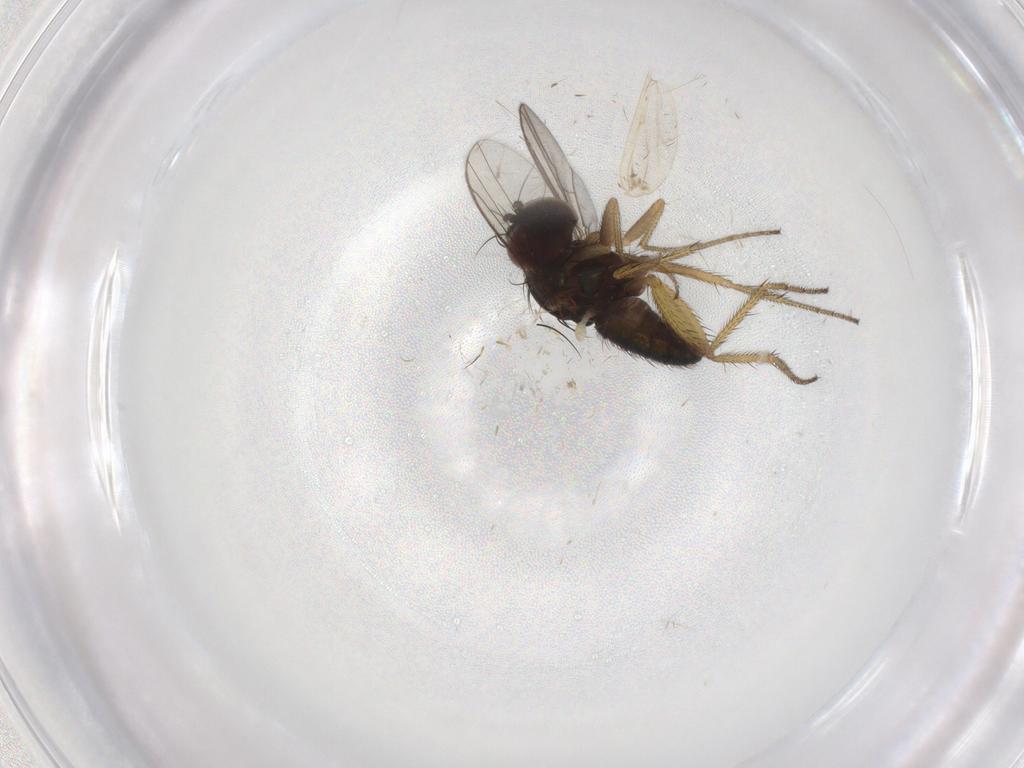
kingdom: Animalia
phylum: Arthropoda
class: Insecta
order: Diptera
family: Chironomidae
